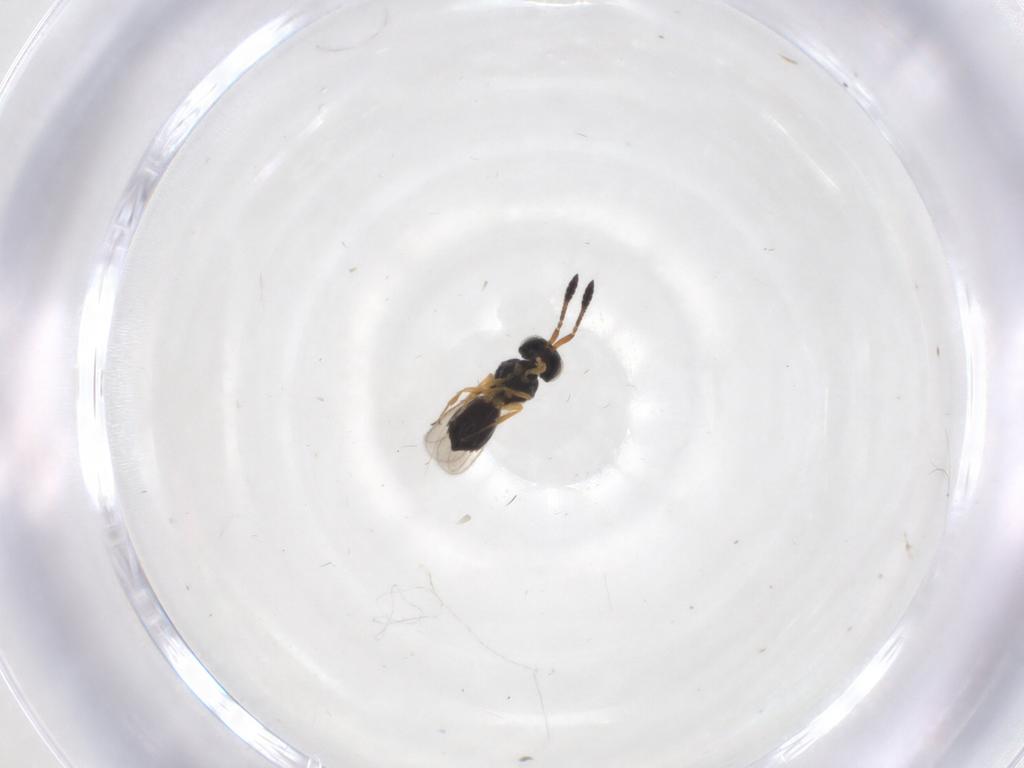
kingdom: Animalia
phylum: Arthropoda
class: Insecta
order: Hymenoptera
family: Scelionidae
